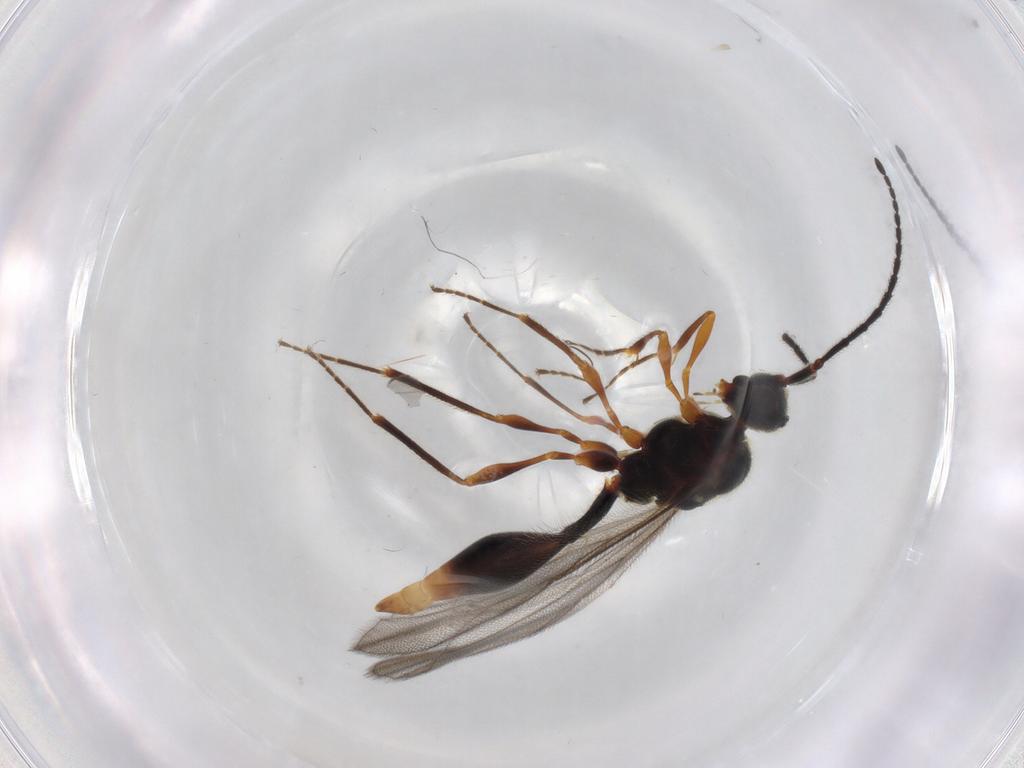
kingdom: Animalia
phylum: Arthropoda
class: Insecta
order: Hymenoptera
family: Diapriidae
